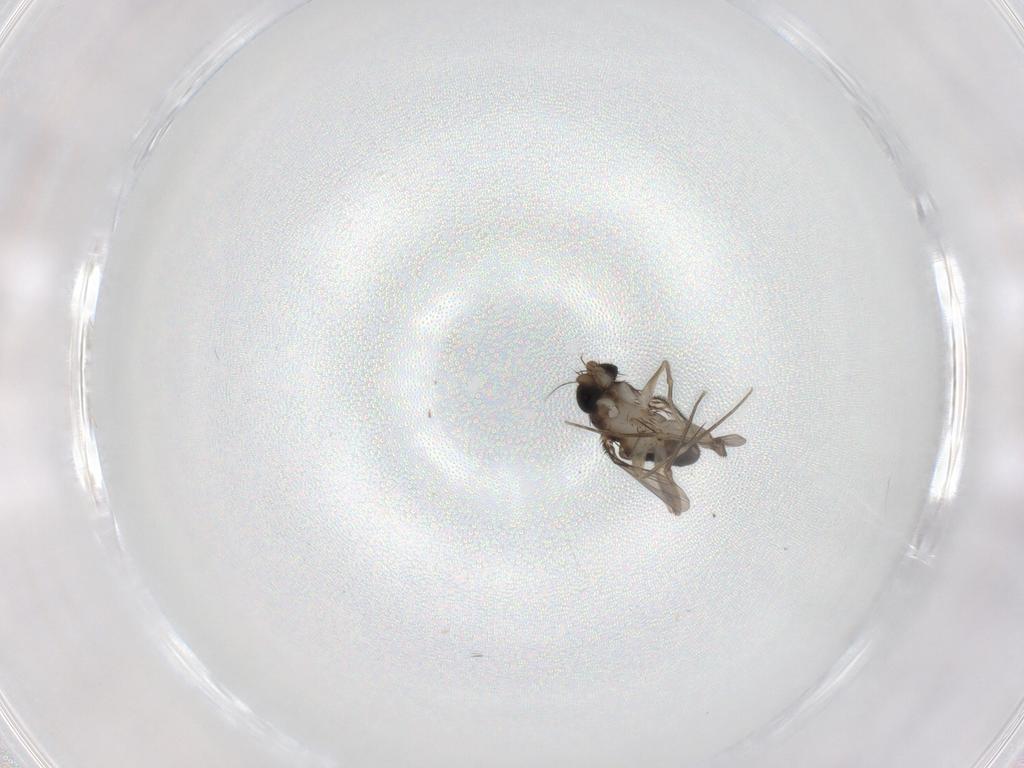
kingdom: Animalia
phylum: Arthropoda
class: Insecta
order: Diptera
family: Phoridae
